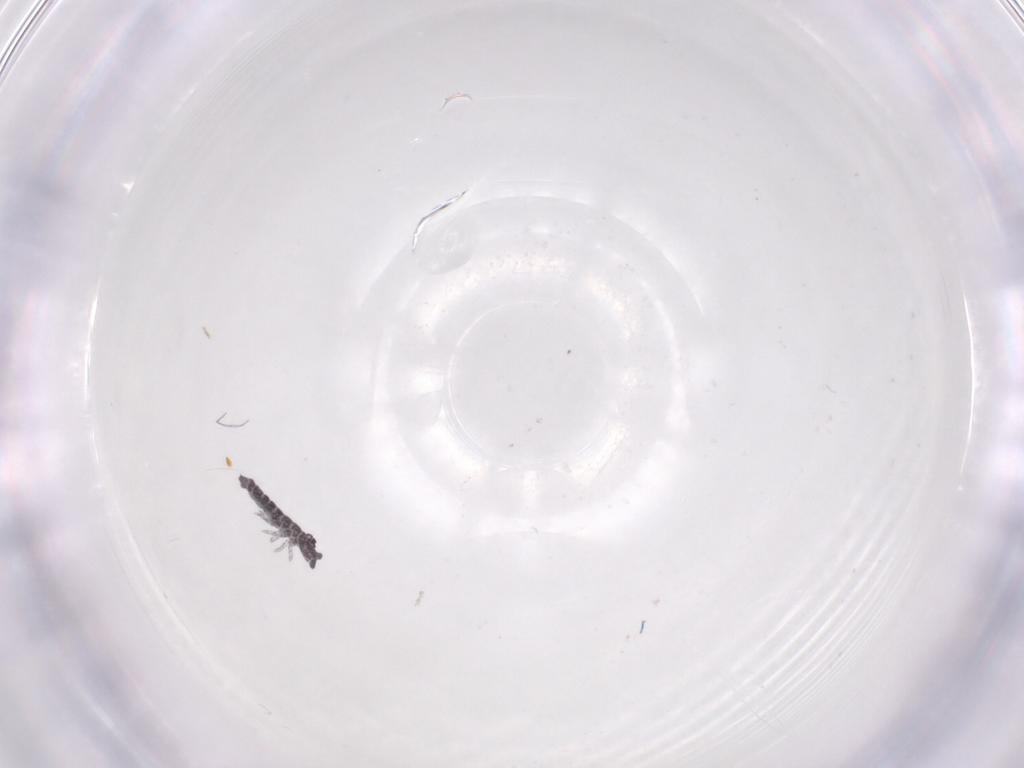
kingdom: Animalia
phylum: Arthropoda
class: Collembola
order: Poduromorpha
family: Hypogastruridae
